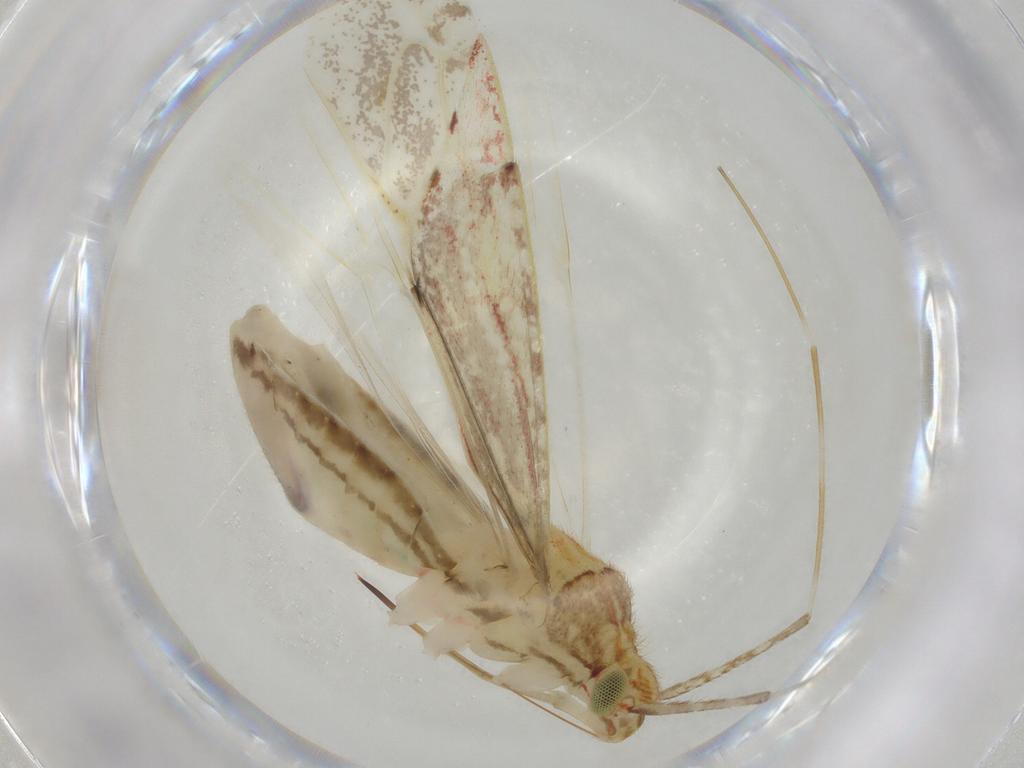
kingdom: Animalia
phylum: Arthropoda
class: Insecta
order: Hemiptera
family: Miridae
